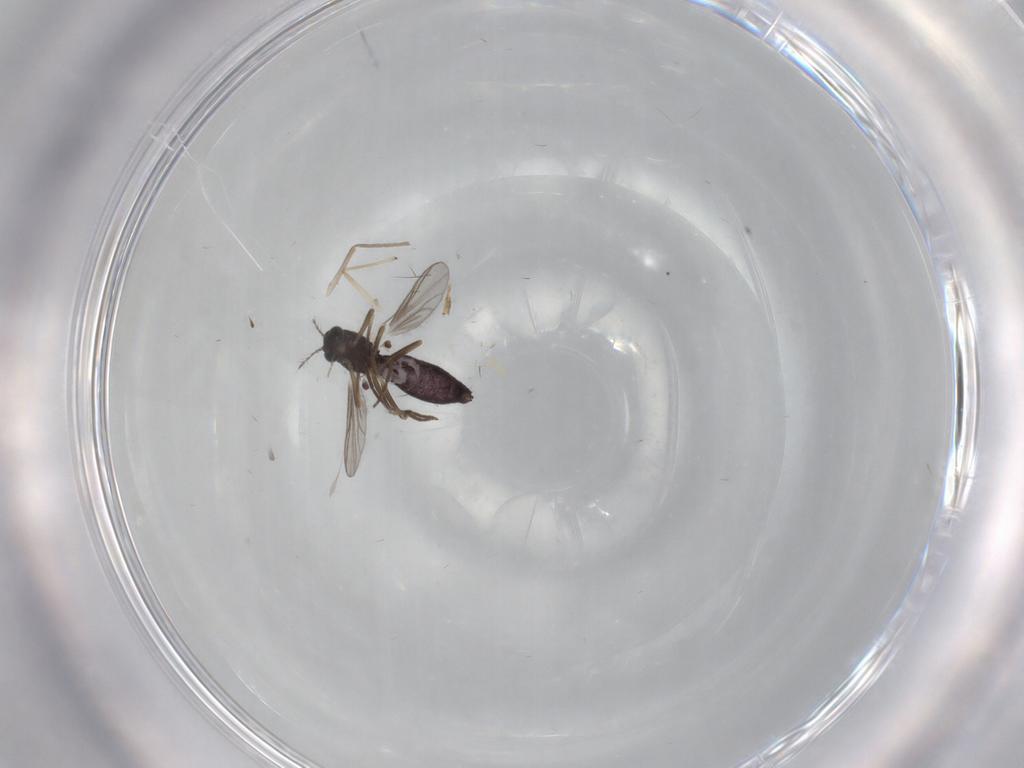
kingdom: Animalia
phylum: Arthropoda
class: Insecta
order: Diptera
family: Chironomidae
